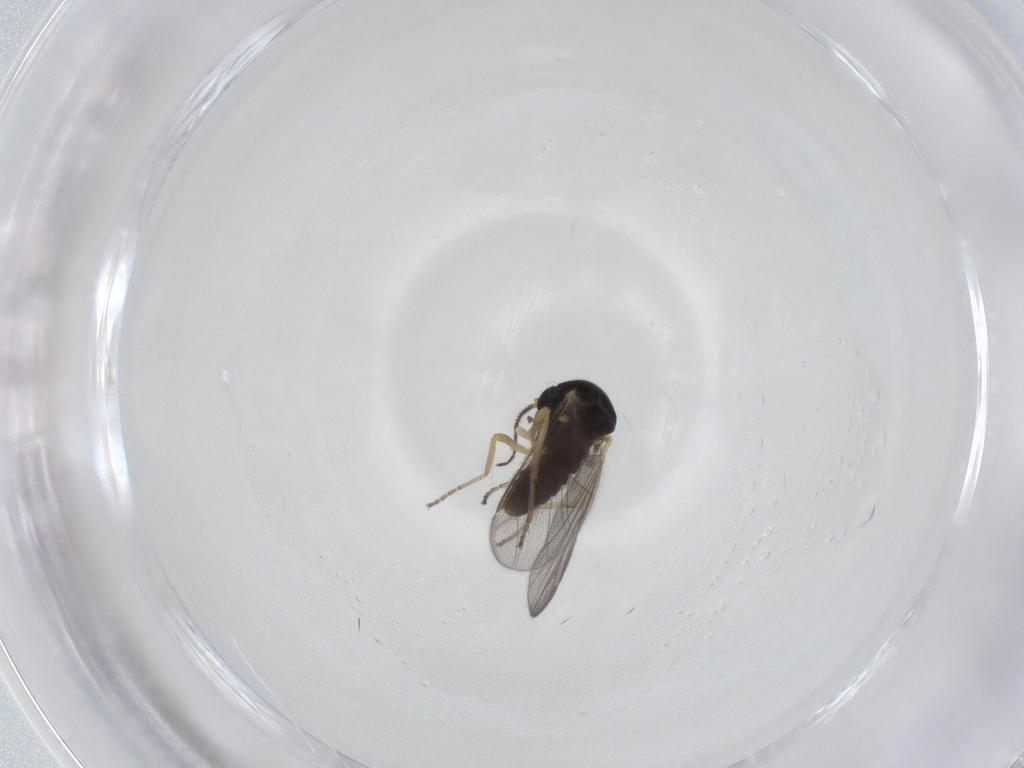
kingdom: Animalia
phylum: Arthropoda
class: Insecta
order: Diptera
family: Ceratopogonidae
